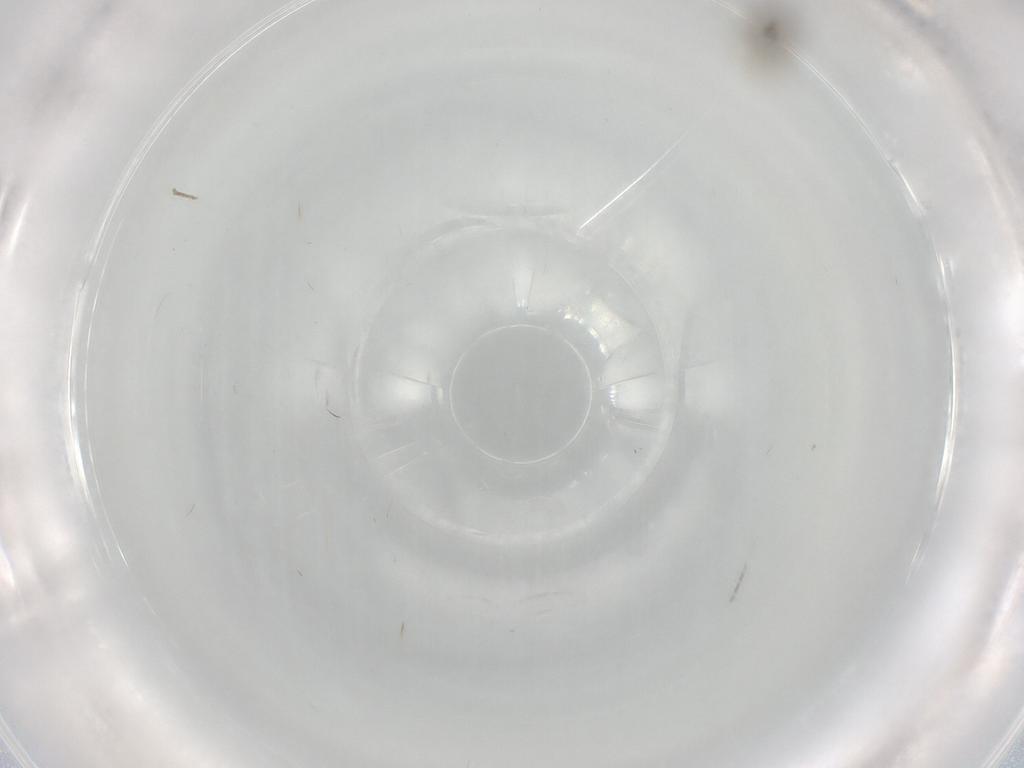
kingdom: Animalia
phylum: Arthropoda
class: Insecta
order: Diptera
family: Cecidomyiidae
